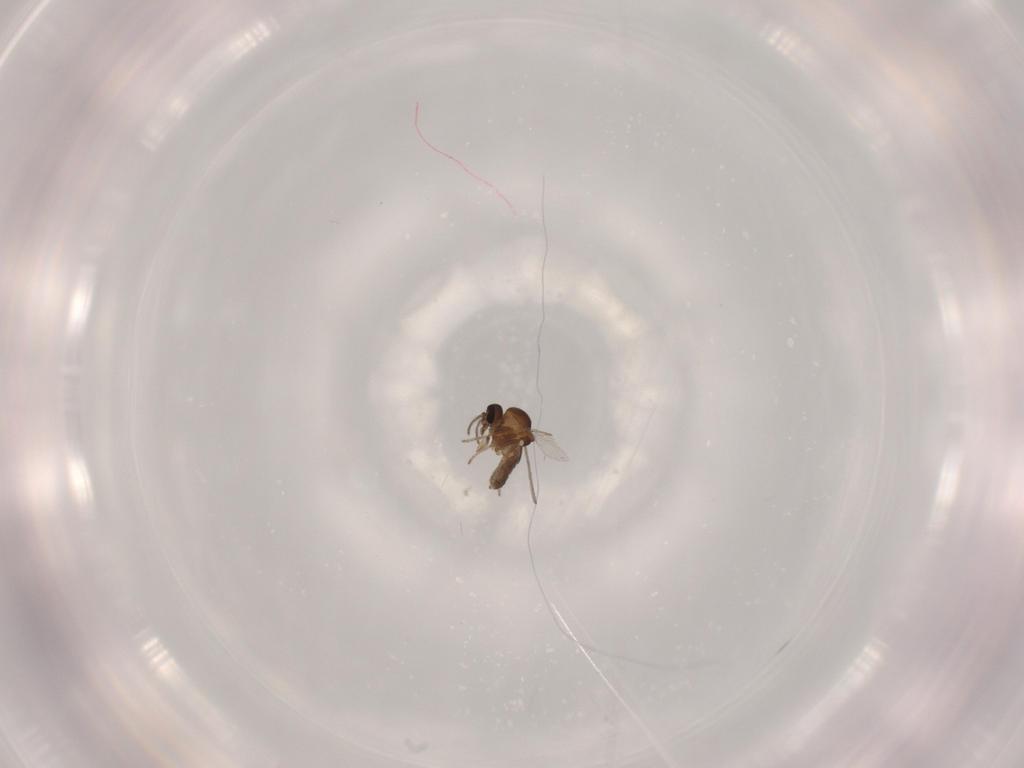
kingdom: Animalia
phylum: Arthropoda
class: Insecta
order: Diptera
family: Ceratopogonidae
